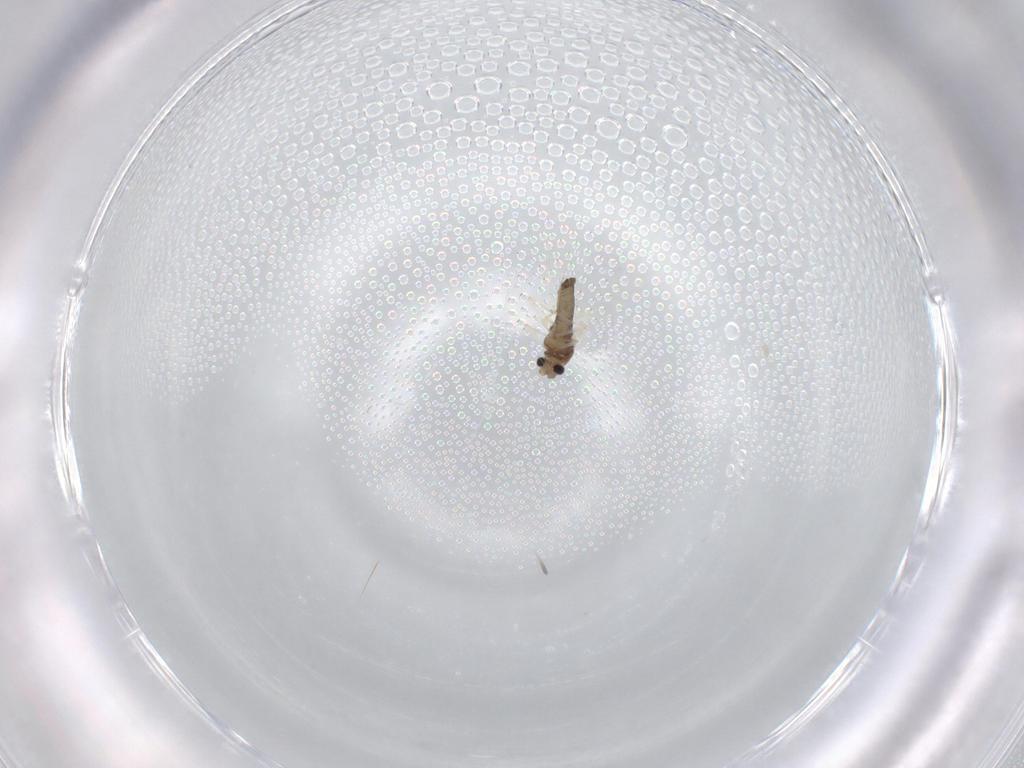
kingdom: Animalia
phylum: Arthropoda
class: Insecta
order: Diptera
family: Chironomidae
